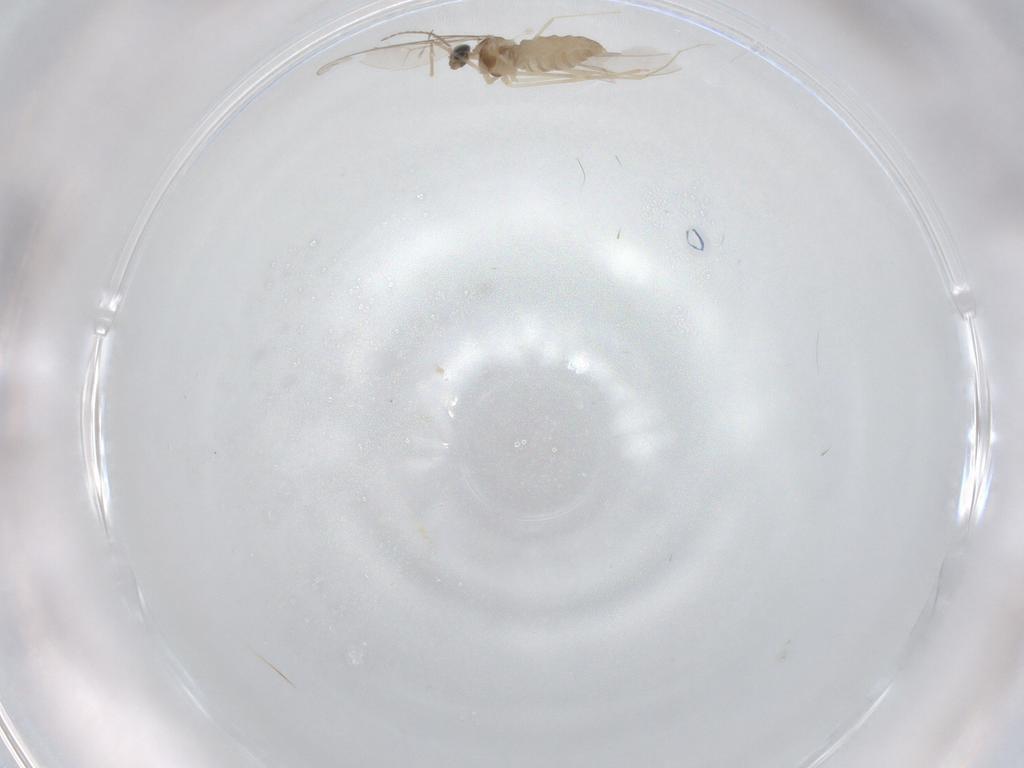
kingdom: Animalia
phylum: Arthropoda
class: Insecta
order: Diptera
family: Cecidomyiidae
